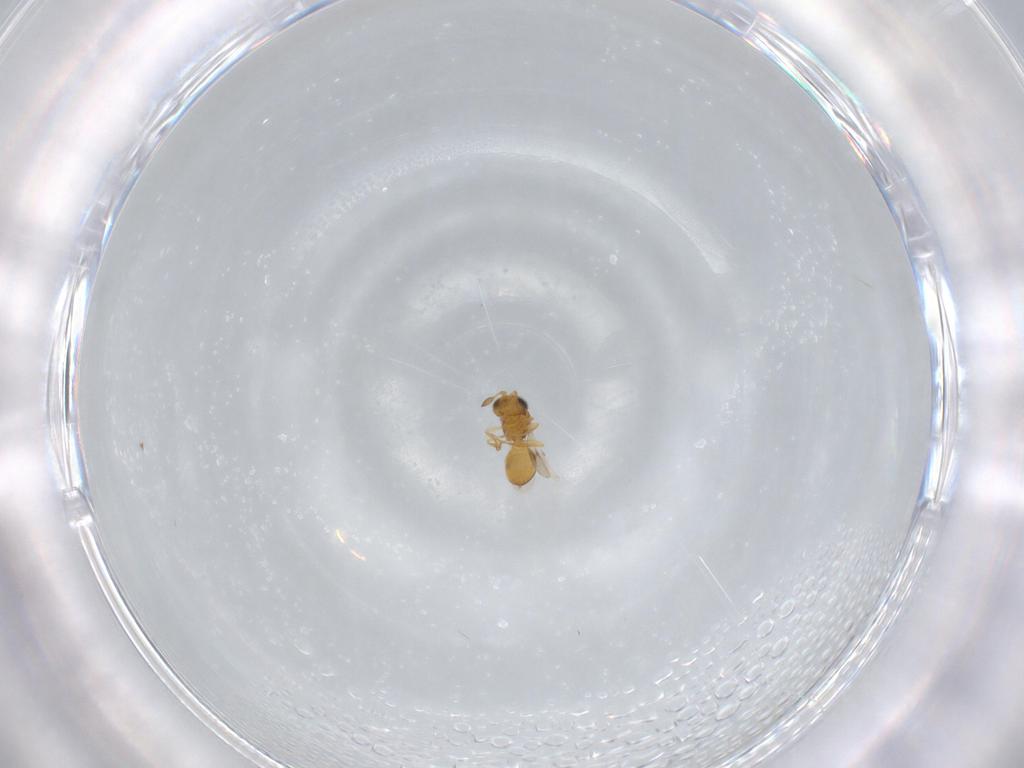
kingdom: Animalia
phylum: Arthropoda
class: Insecta
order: Hymenoptera
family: Scelionidae
